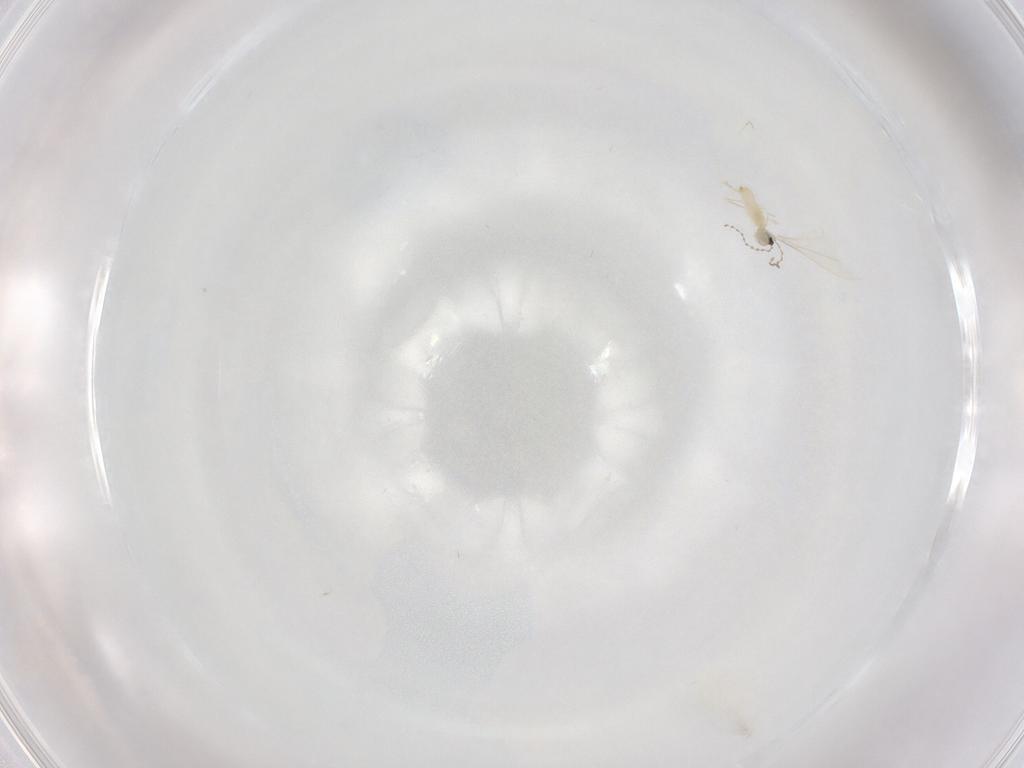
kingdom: Animalia
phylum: Arthropoda
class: Insecta
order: Diptera
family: Cecidomyiidae
